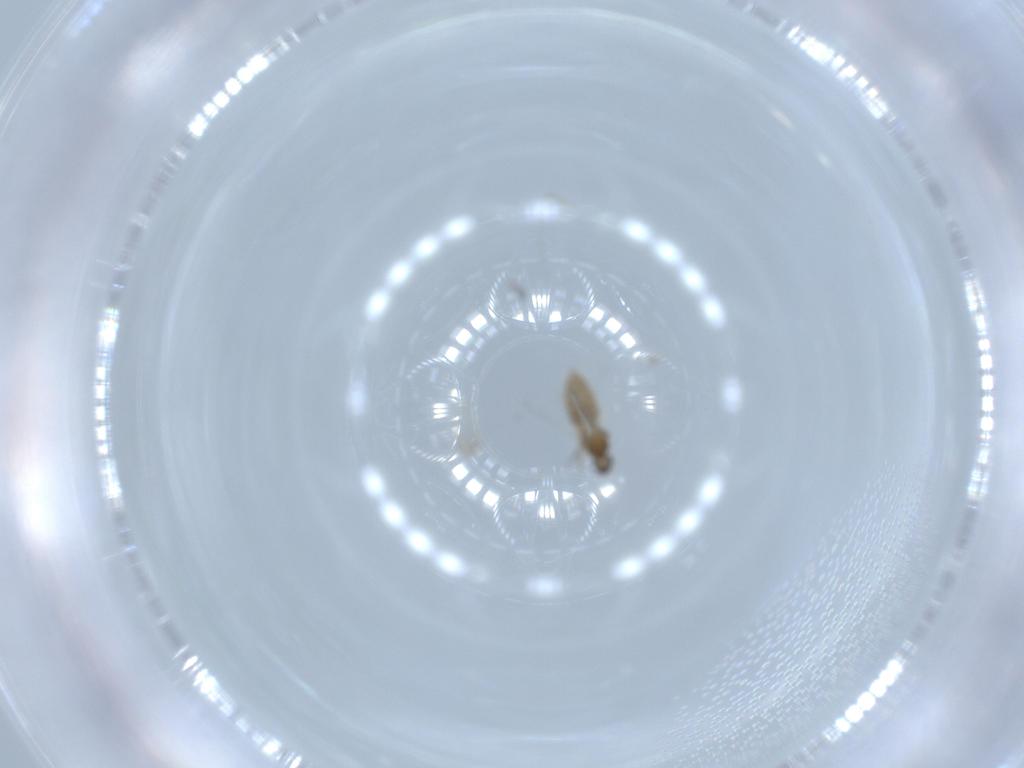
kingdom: Animalia
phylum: Arthropoda
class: Insecta
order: Diptera
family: Cecidomyiidae
